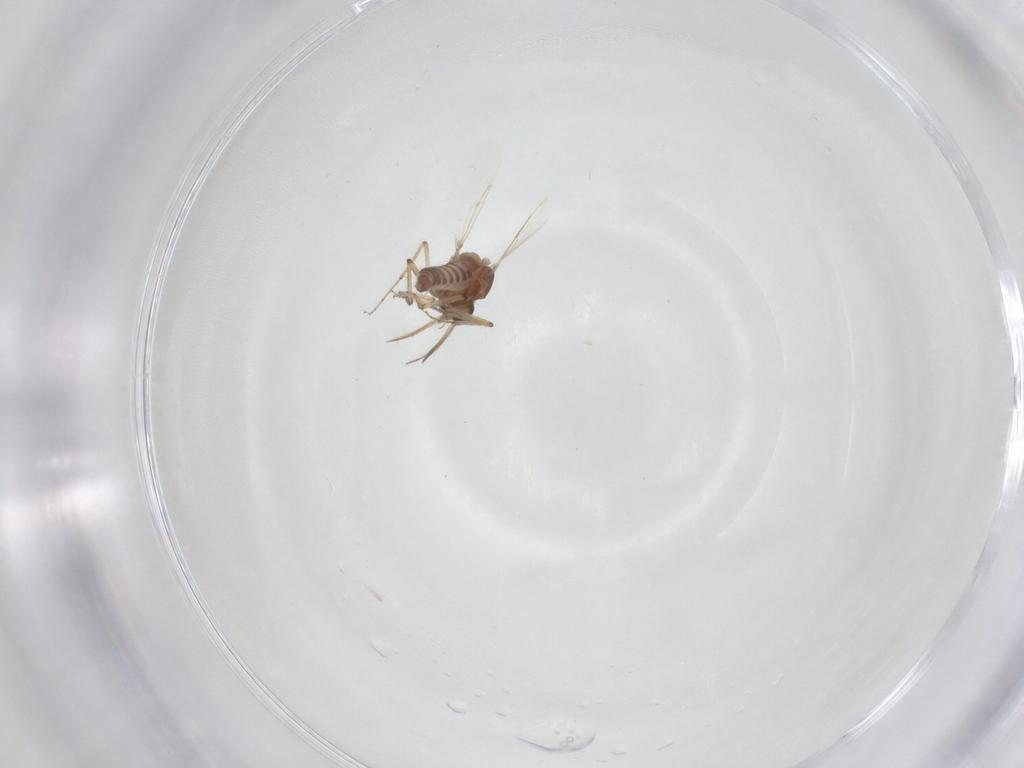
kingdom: Animalia
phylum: Arthropoda
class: Insecta
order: Diptera
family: Ceratopogonidae
